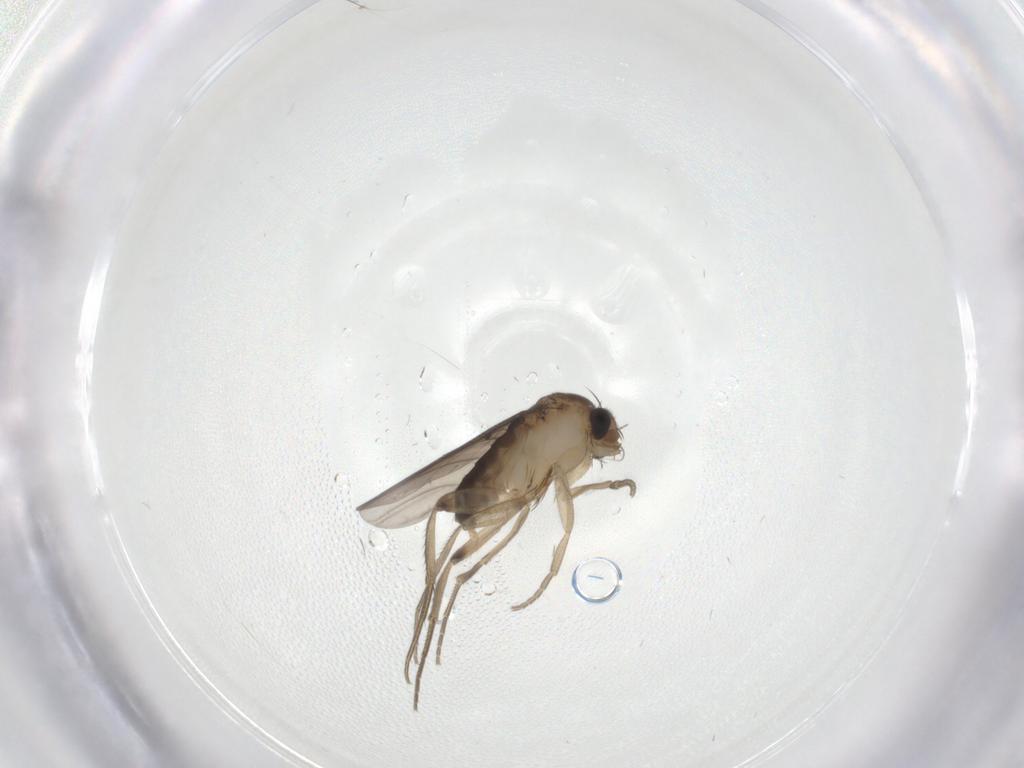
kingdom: Animalia
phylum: Arthropoda
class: Insecta
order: Diptera
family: Phoridae
